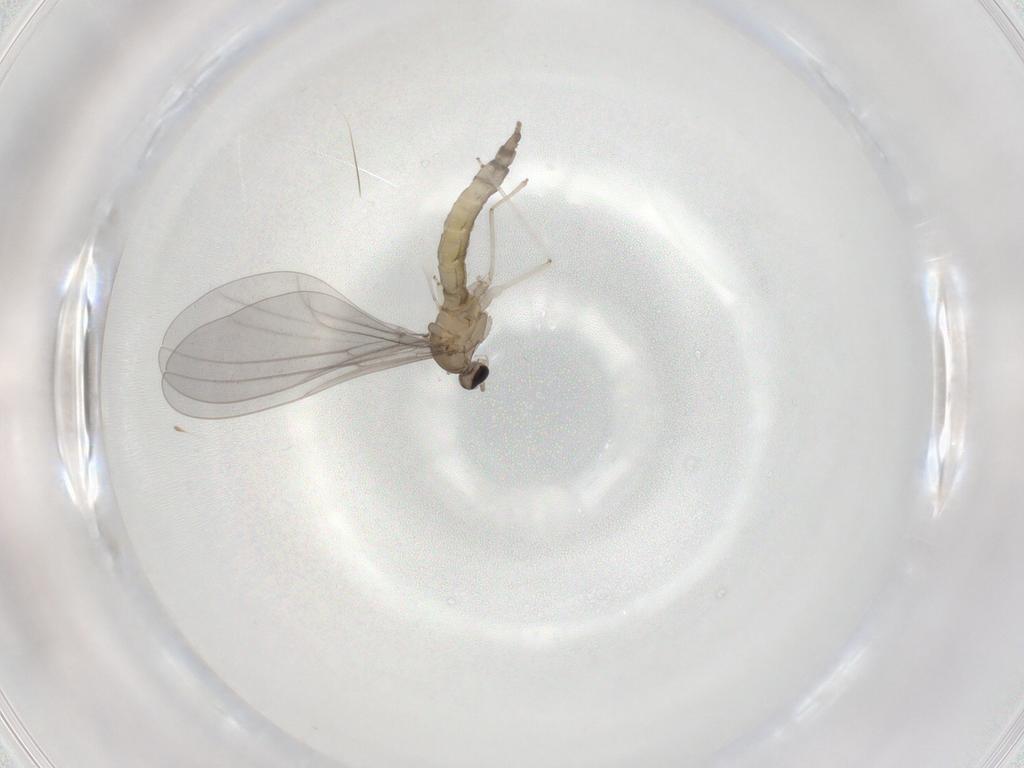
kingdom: Animalia
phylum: Arthropoda
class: Insecta
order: Diptera
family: Cecidomyiidae
